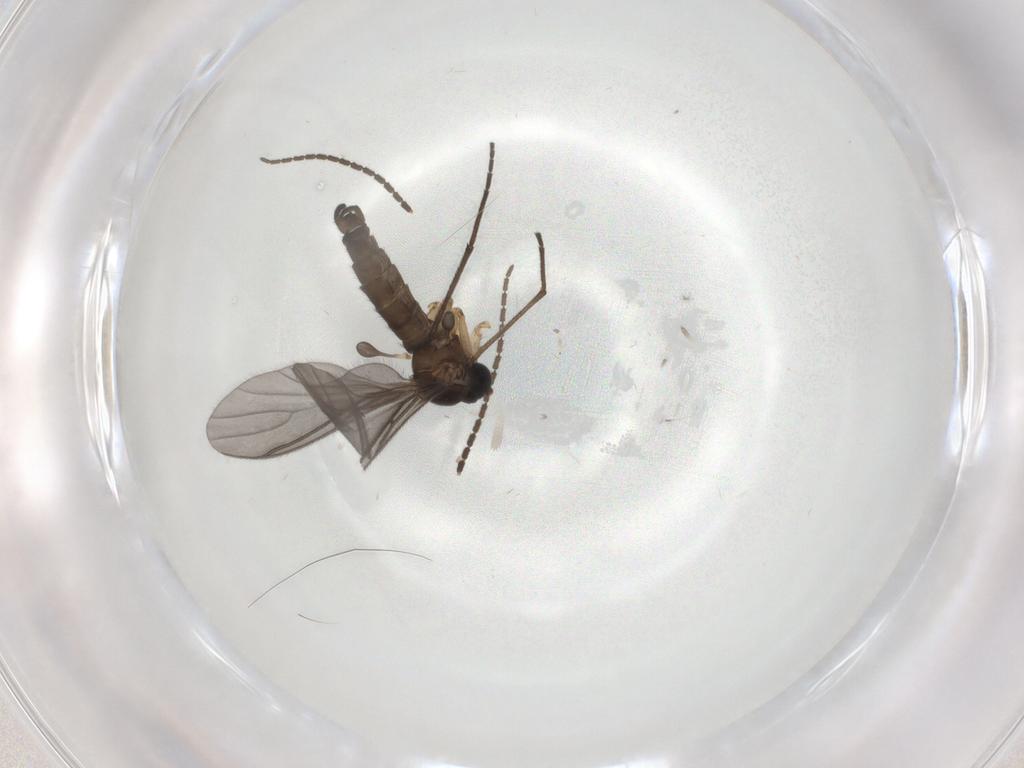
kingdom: Animalia
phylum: Arthropoda
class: Insecta
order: Diptera
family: Sciaridae
